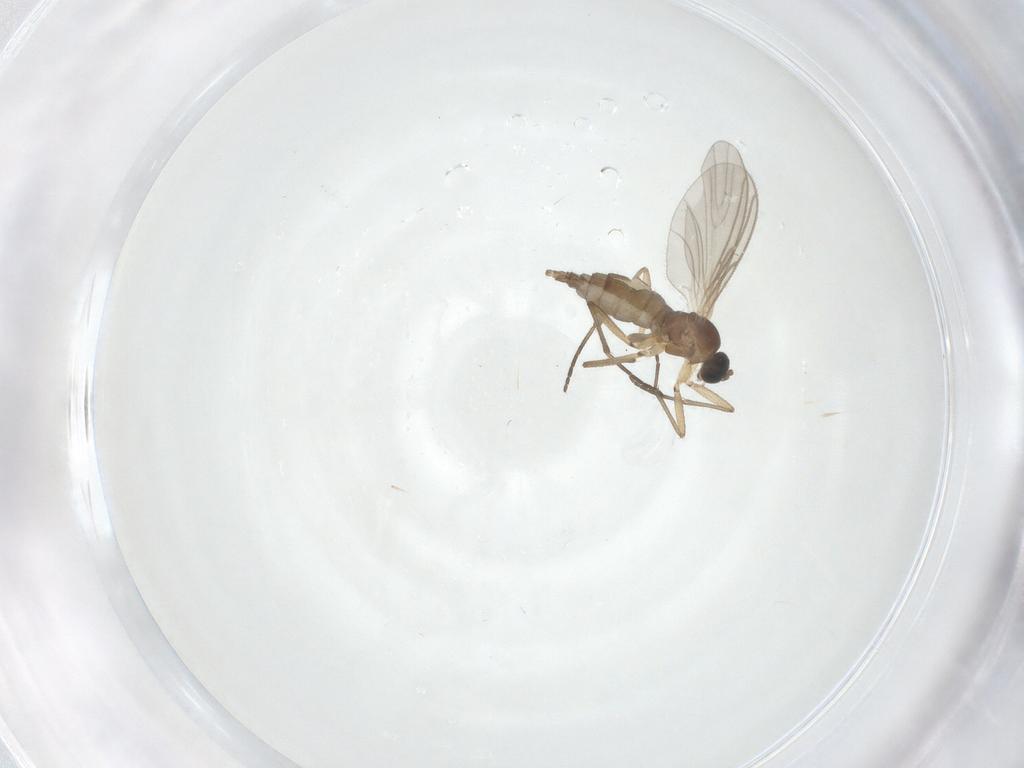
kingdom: Animalia
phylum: Arthropoda
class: Insecta
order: Diptera
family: Sciaridae
